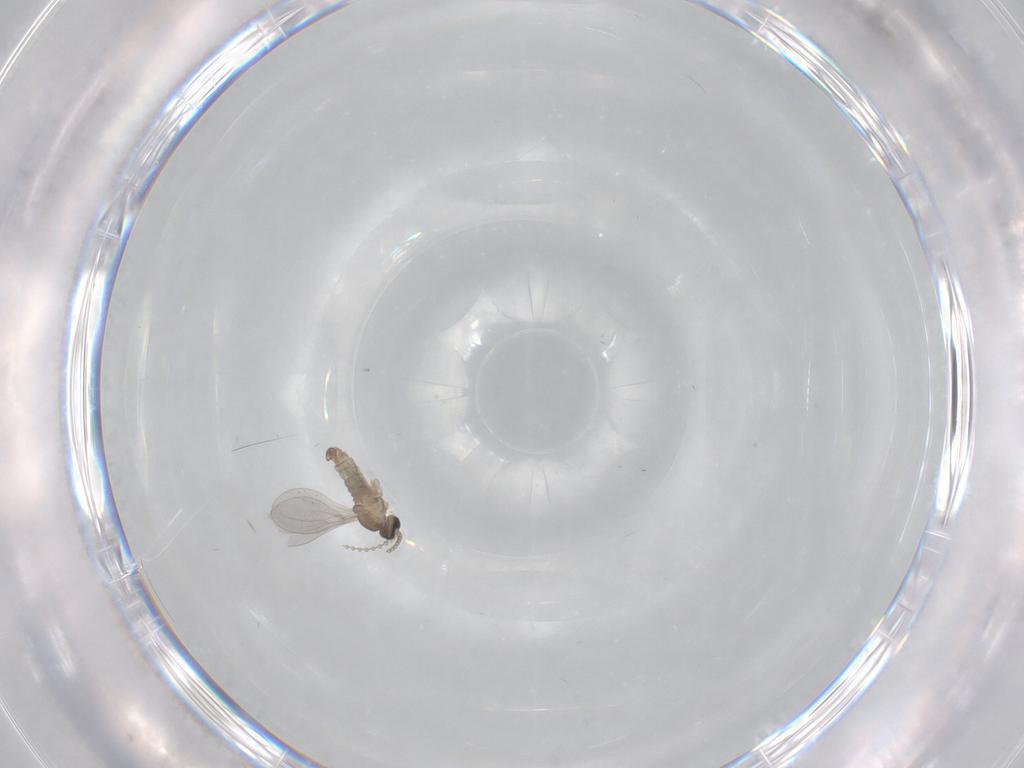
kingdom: Animalia
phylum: Arthropoda
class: Insecta
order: Diptera
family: Cecidomyiidae
